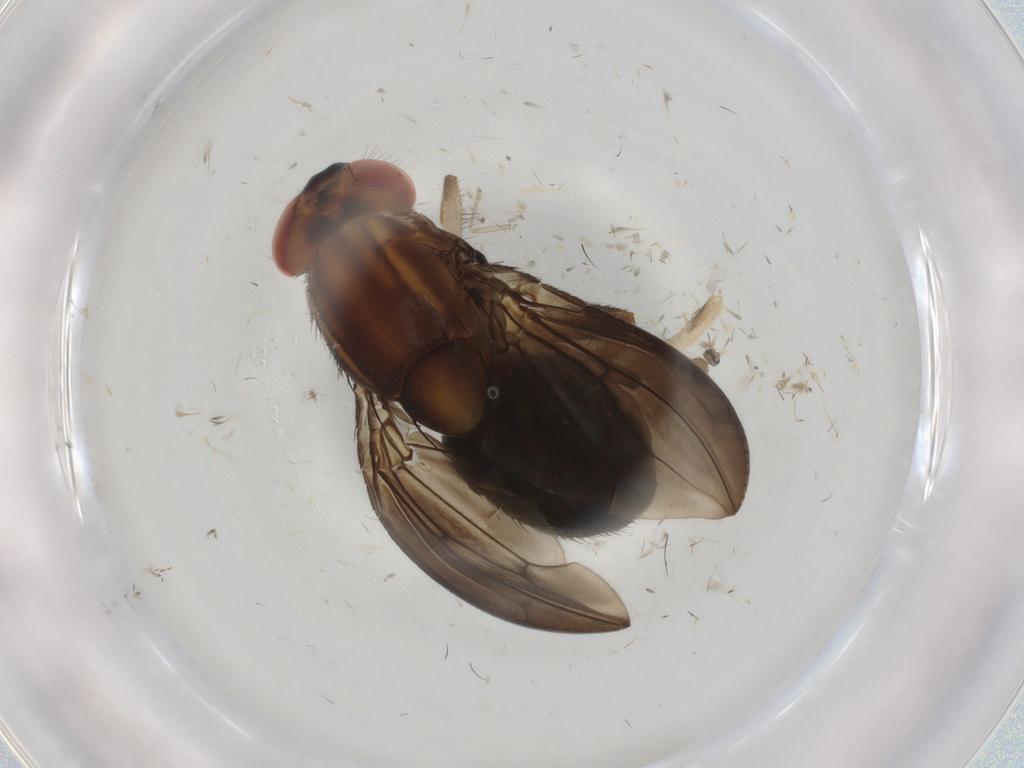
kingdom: Animalia
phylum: Arthropoda
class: Insecta
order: Diptera
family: Drosophilidae
